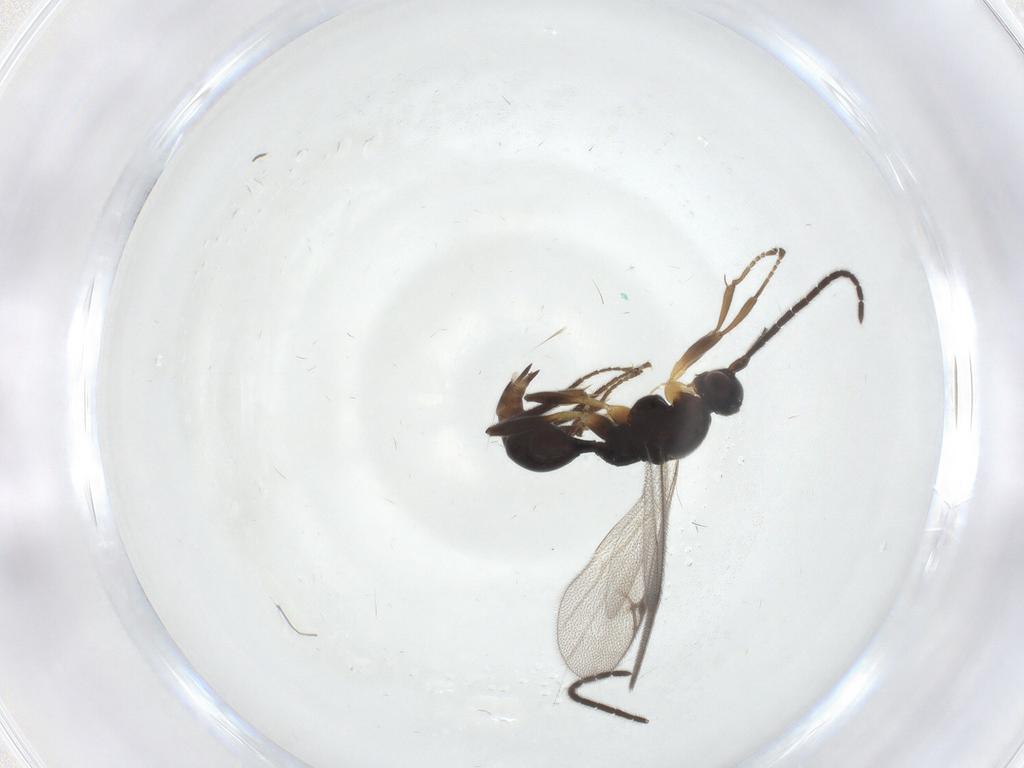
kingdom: Animalia
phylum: Arthropoda
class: Insecta
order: Hymenoptera
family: Proctotrupidae
